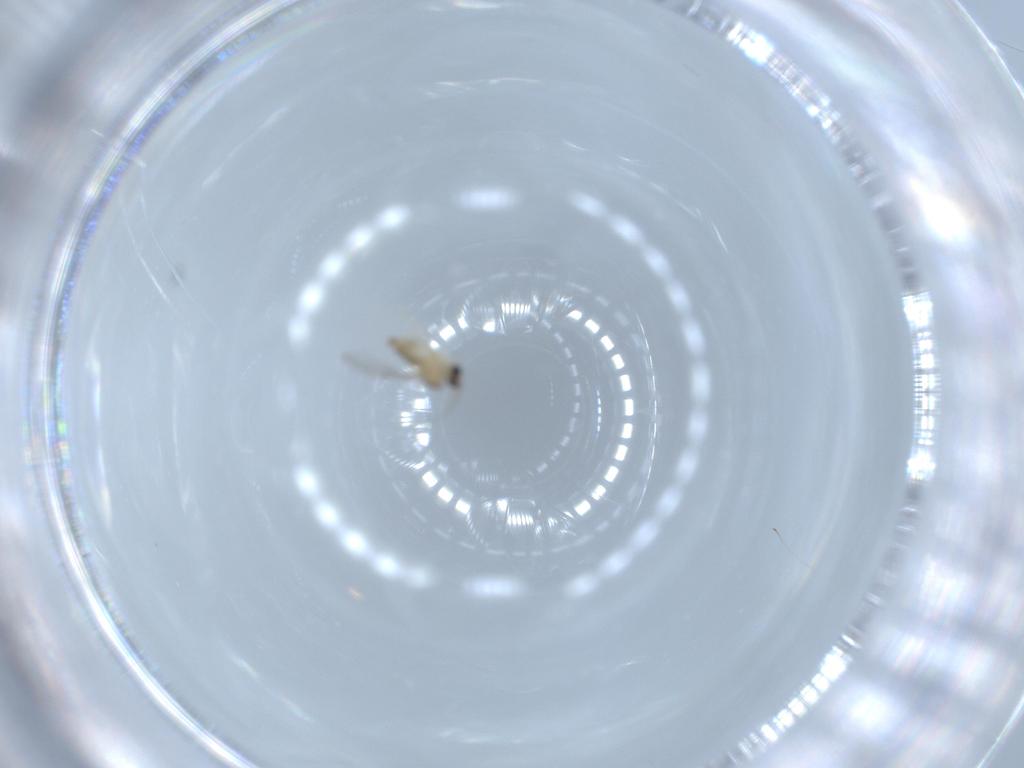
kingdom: Animalia
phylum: Arthropoda
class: Insecta
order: Diptera
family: Cecidomyiidae
